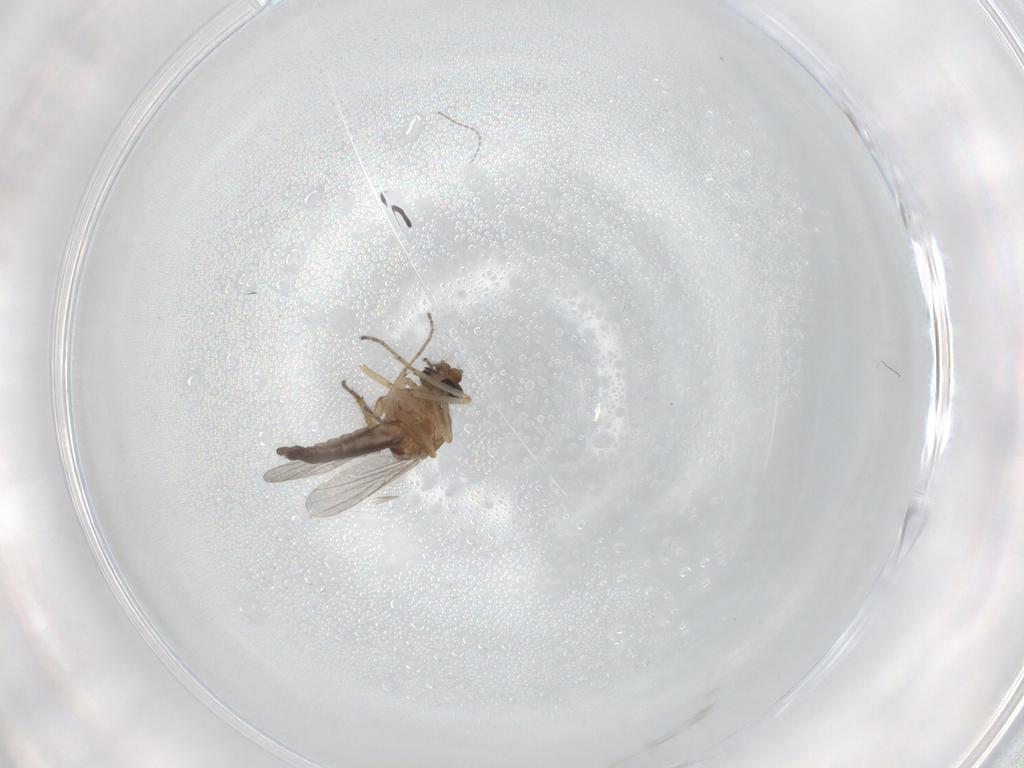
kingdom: Animalia
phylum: Arthropoda
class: Insecta
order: Diptera
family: Ceratopogonidae
